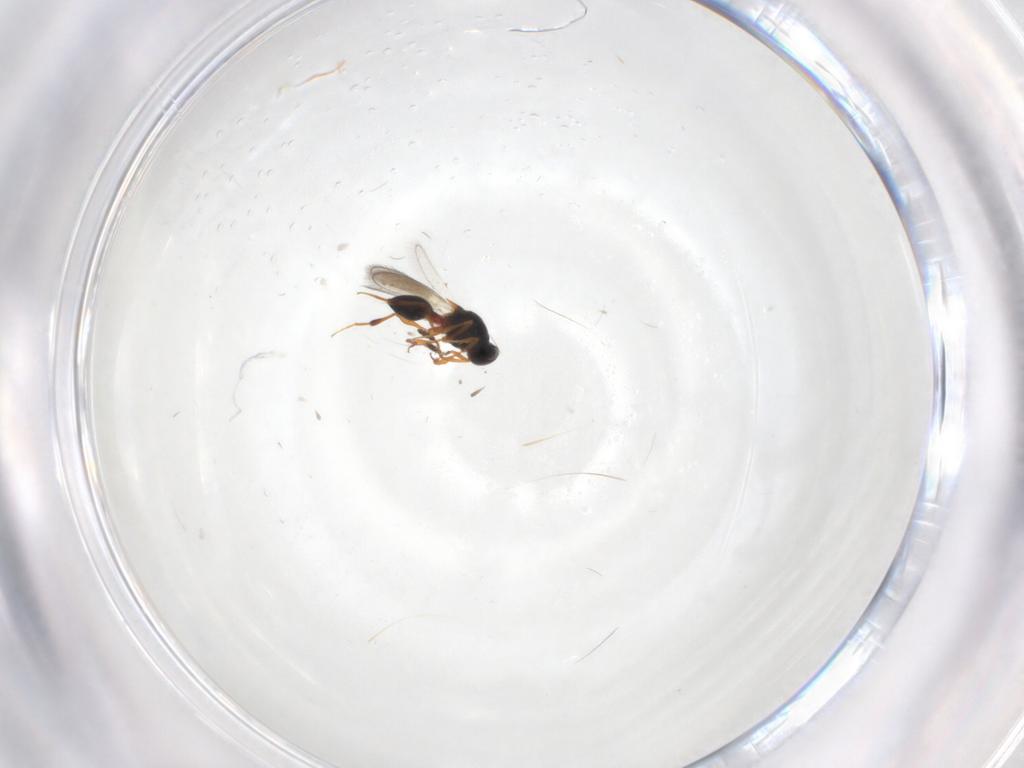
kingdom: Animalia
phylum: Arthropoda
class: Insecta
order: Hymenoptera
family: Platygastridae
